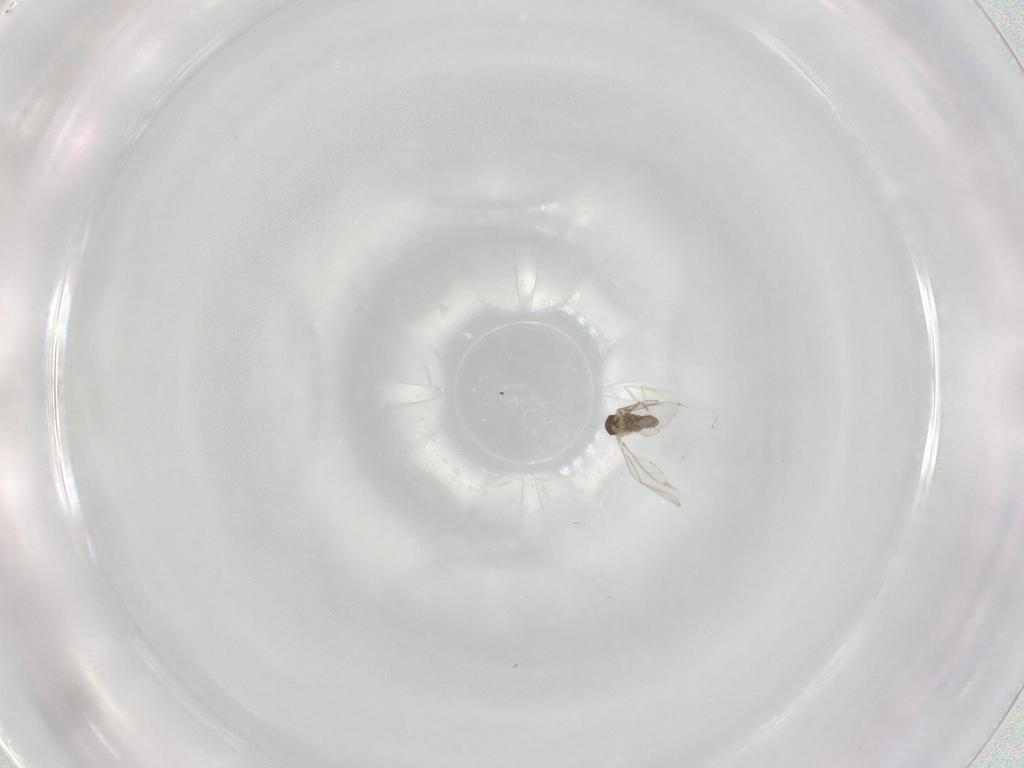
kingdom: Animalia
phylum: Arthropoda
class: Insecta
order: Diptera
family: Cecidomyiidae
